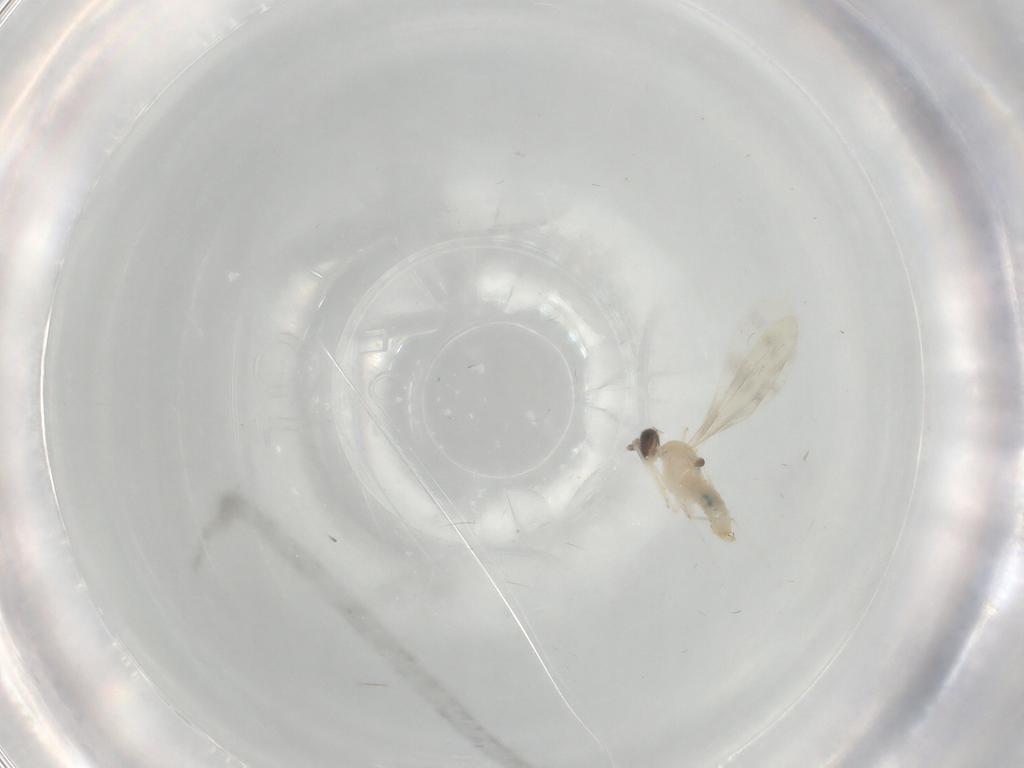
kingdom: Animalia
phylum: Arthropoda
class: Insecta
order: Diptera
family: Cecidomyiidae
